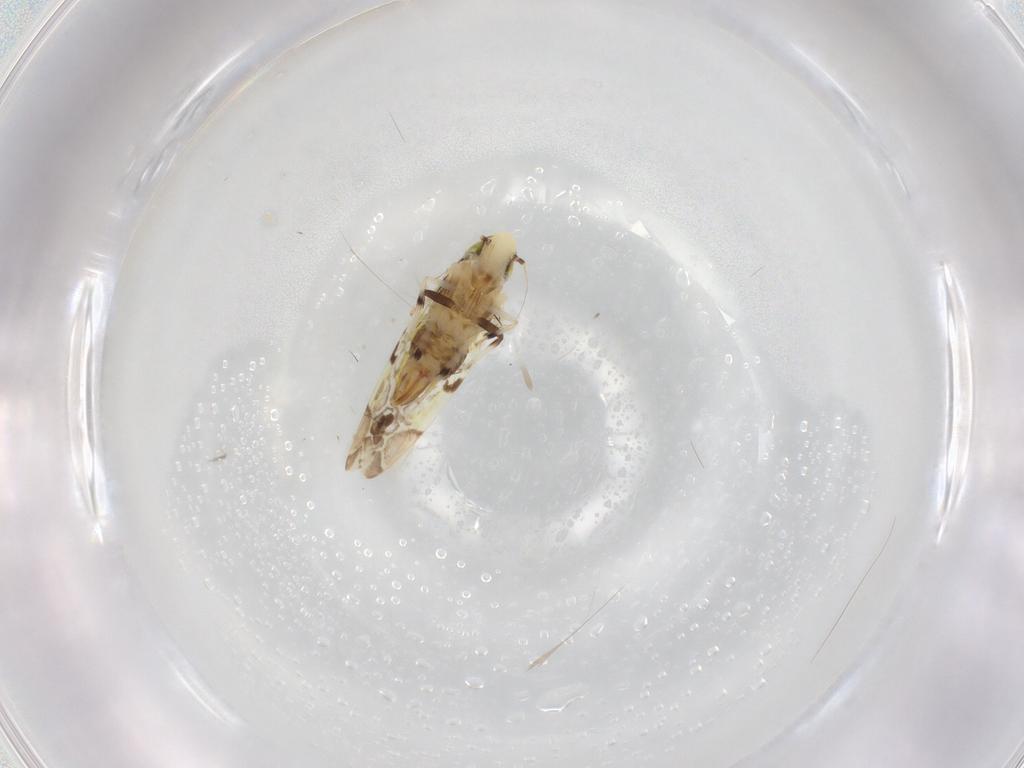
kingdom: Animalia
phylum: Arthropoda
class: Insecta
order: Hemiptera
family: Cicadellidae
